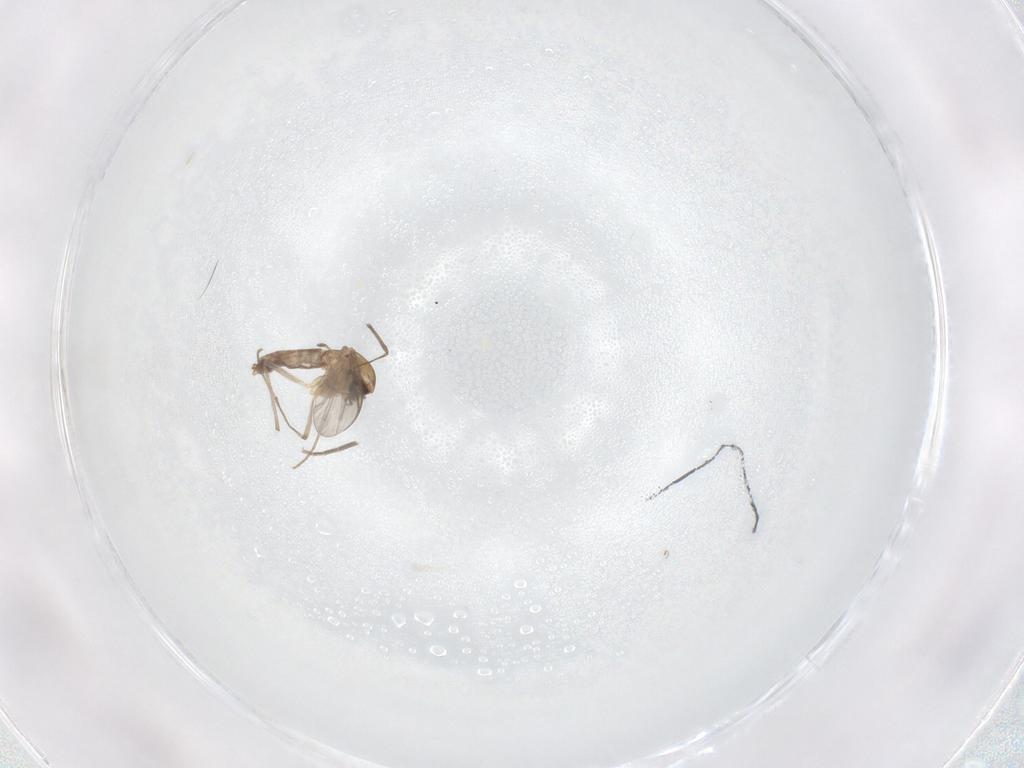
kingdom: Animalia
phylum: Arthropoda
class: Insecta
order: Diptera
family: Chironomidae
